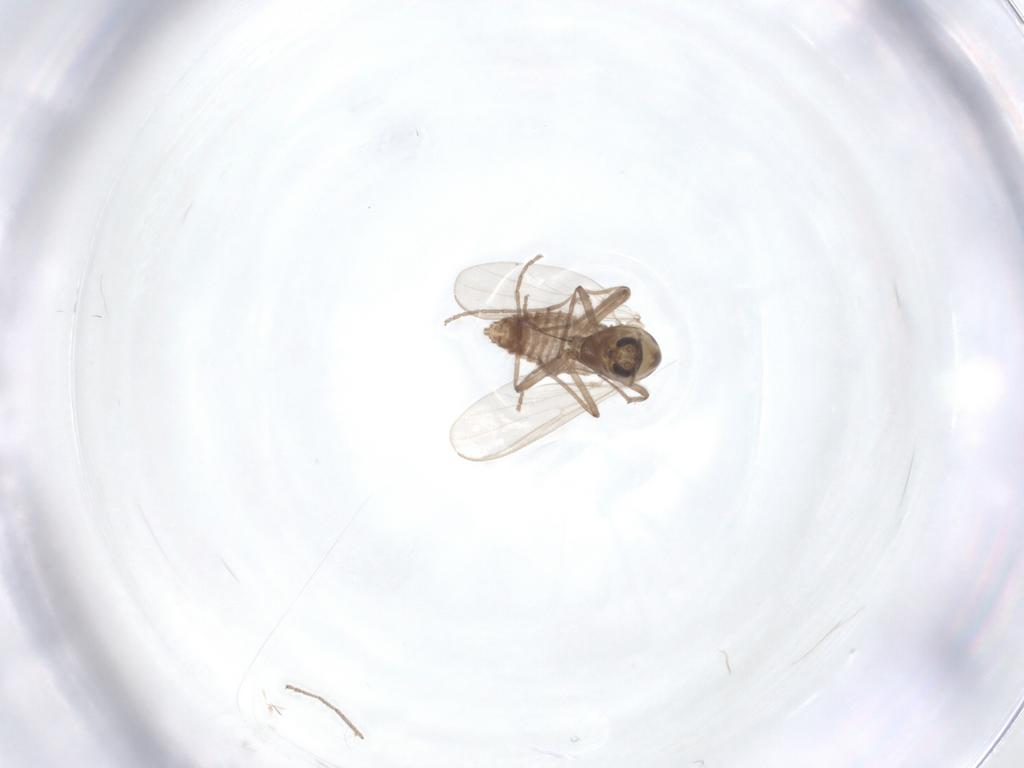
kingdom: Animalia
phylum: Arthropoda
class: Insecta
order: Diptera
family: Chironomidae
